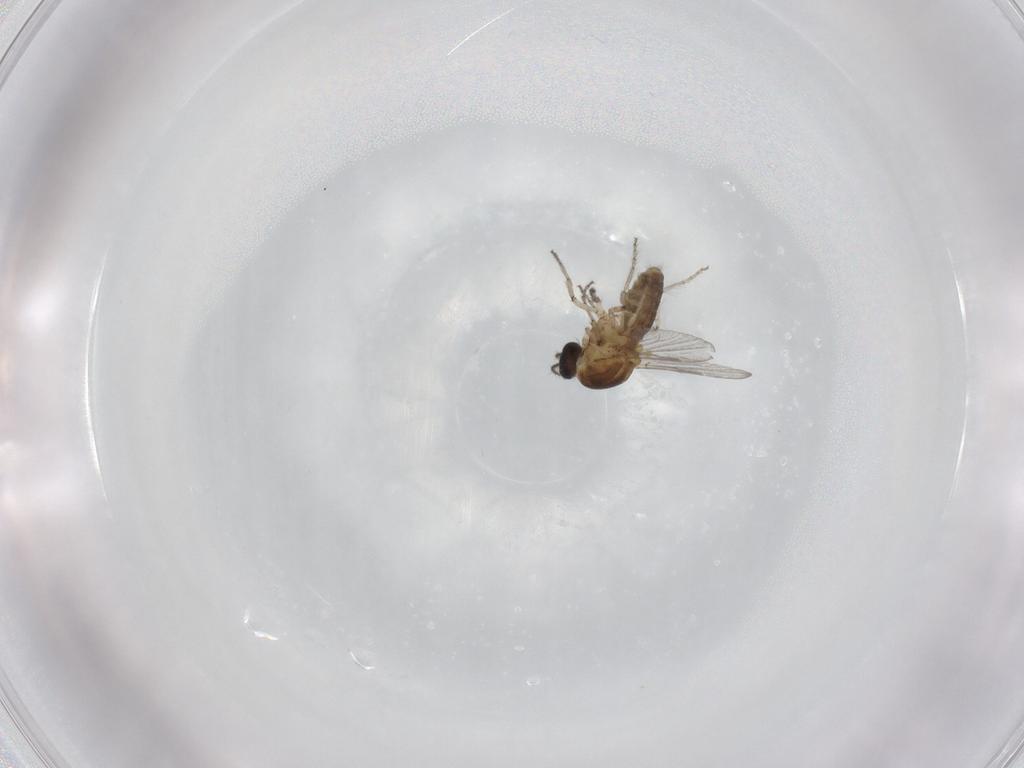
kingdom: Animalia
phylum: Arthropoda
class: Insecta
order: Diptera
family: Ceratopogonidae
